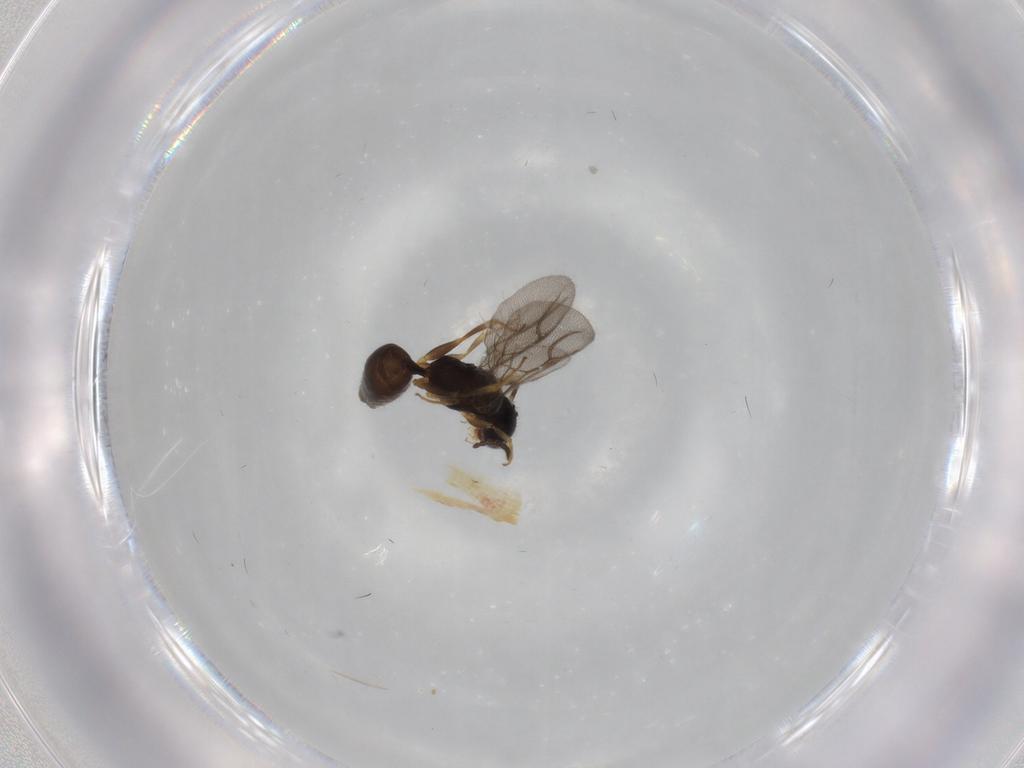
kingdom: Animalia
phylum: Arthropoda
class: Insecta
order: Hymenoptera
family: Bethylidae
